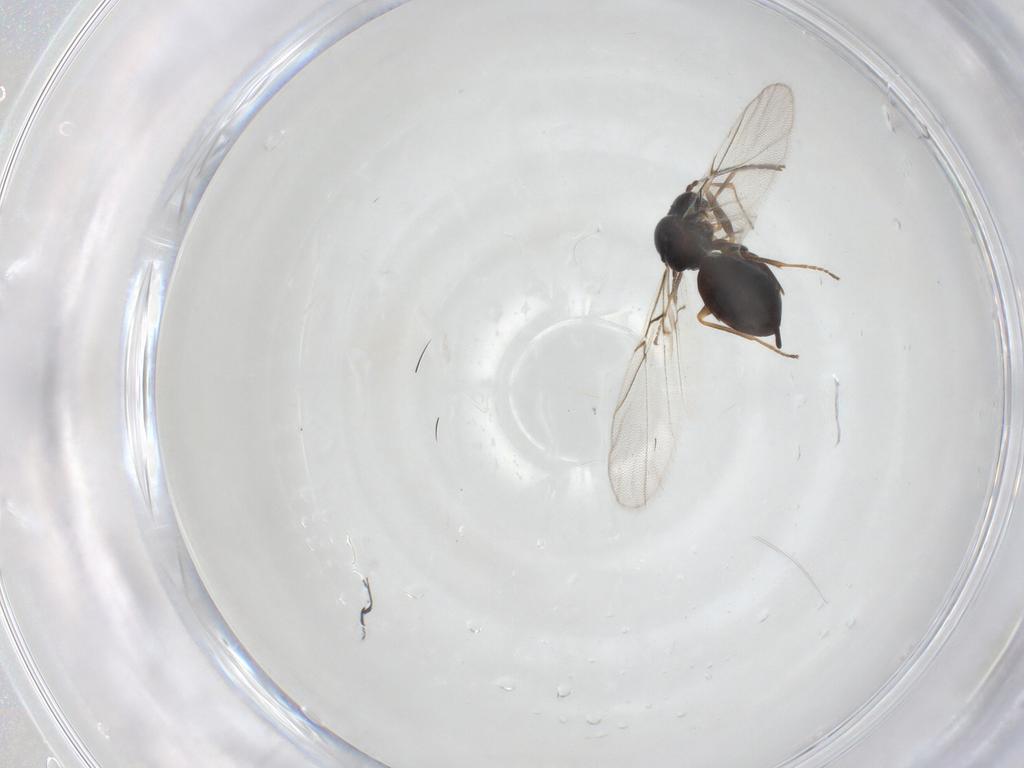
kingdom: Animalia
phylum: Arthropoda
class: Insecta
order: Hymenoptera
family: Cynipidae
